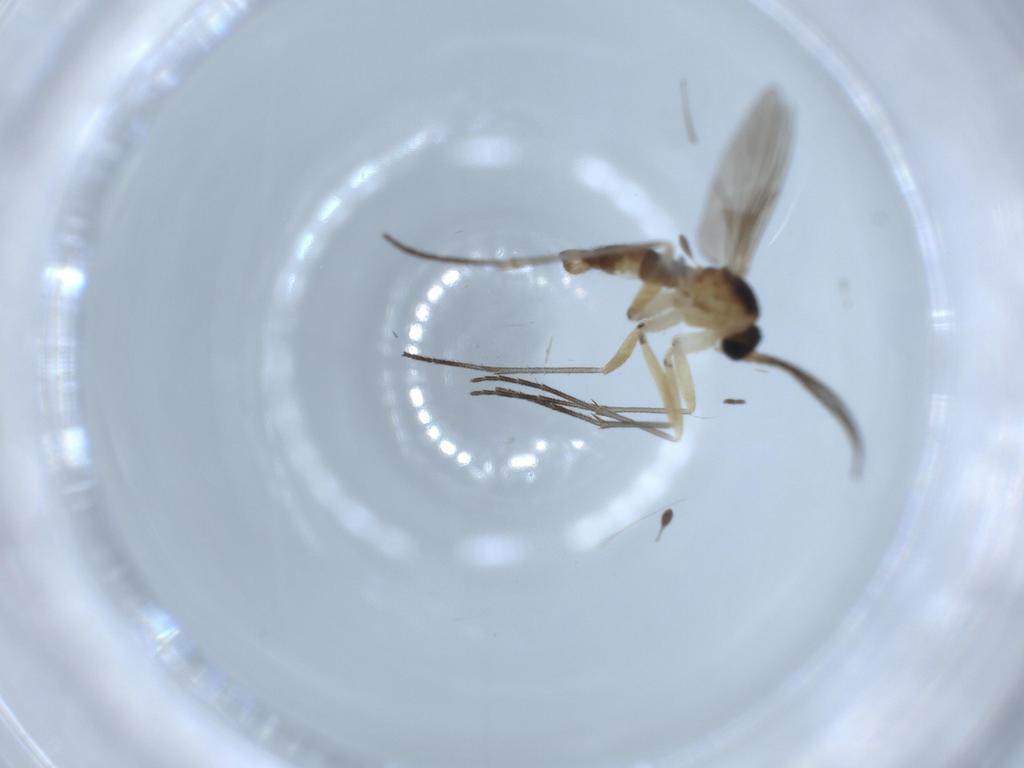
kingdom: Animalia
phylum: Arthropoda
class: Insecta
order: Diptera
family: Sciaridae
